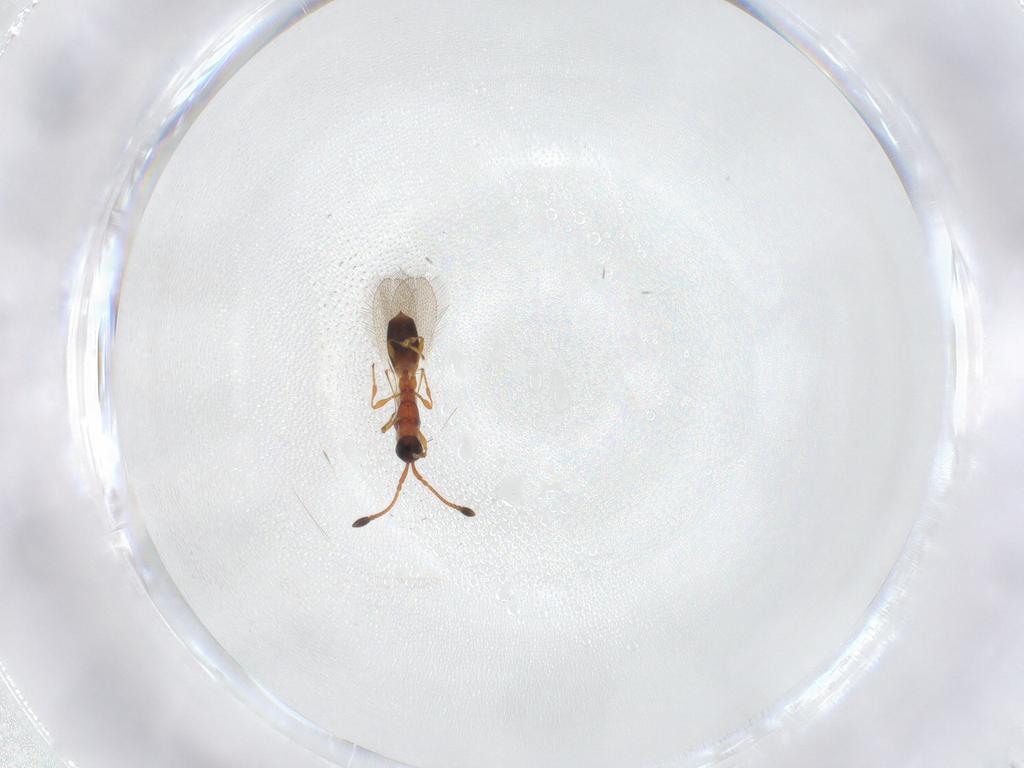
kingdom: Animalia
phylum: Arthropoda
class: Insecta
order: Hymenoptera
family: Diapriidae
